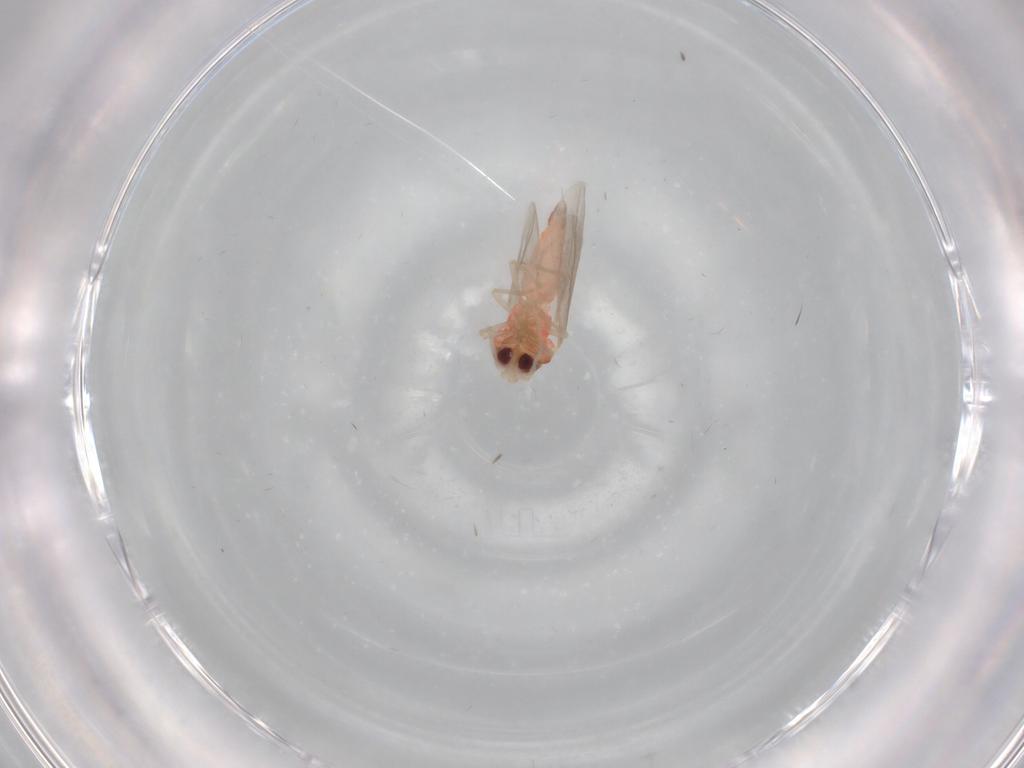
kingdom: Animalia
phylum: Arthropoda
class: Insecta
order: Hemiptera
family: Aleyrodidae
